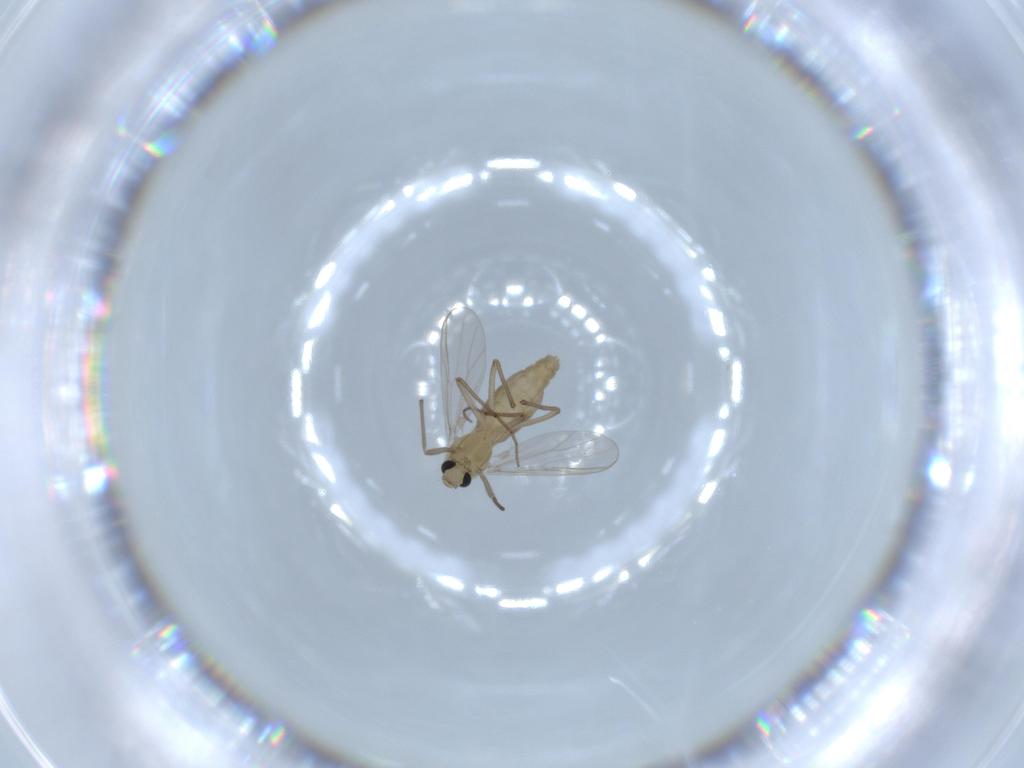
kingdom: Animalia
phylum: Arthropoda
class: Insecta
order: Diptera
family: Chironomidae
